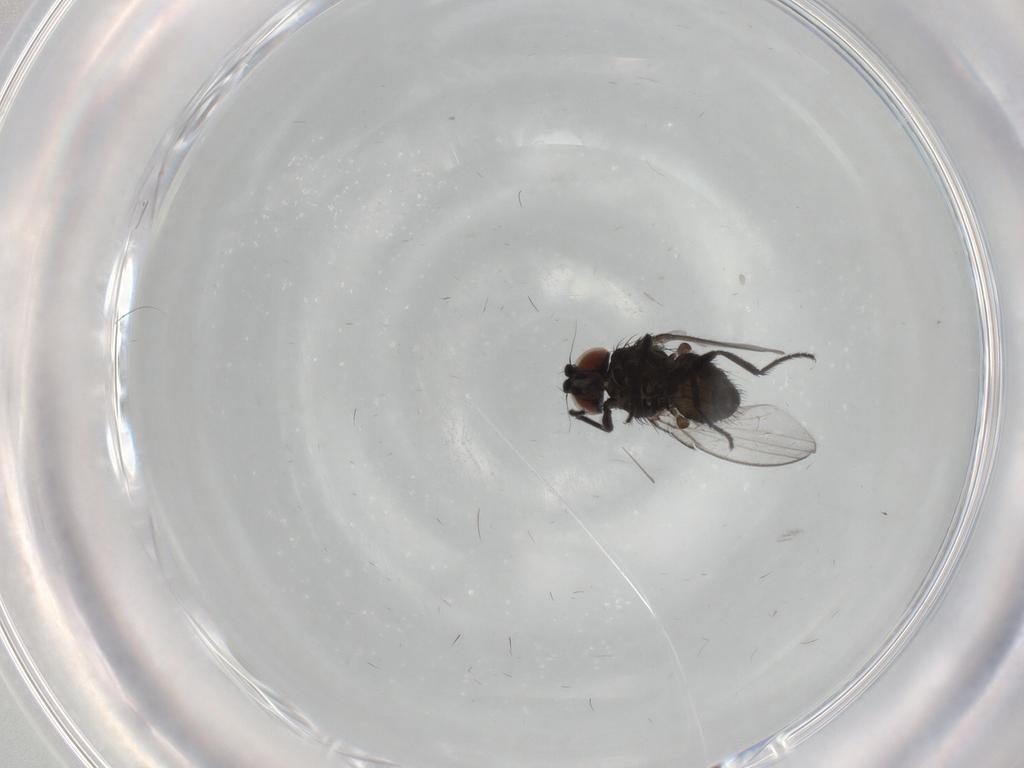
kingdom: Animalia
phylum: Arthropoda
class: Insecta
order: Diptera
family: Milichiidae
